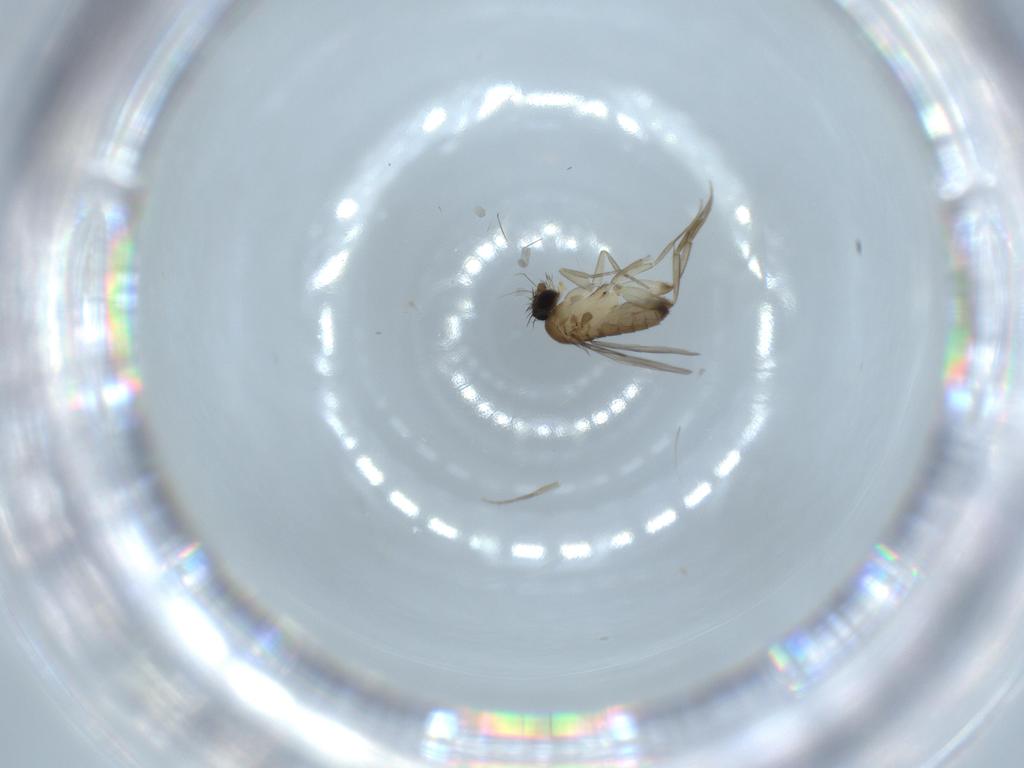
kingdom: Animalia
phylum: Arthropoda
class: Insecta
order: Diptera
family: Phoridae
